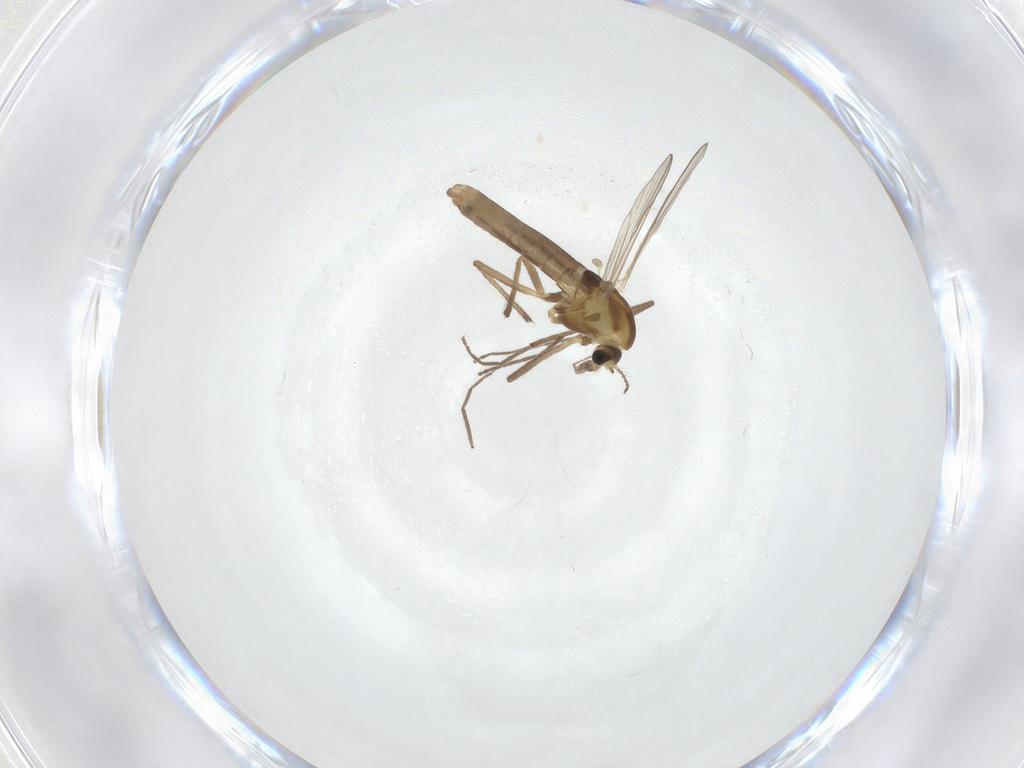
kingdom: Animalia
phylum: Arthropoda
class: Insecta
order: Diptera
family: Chironomidae
